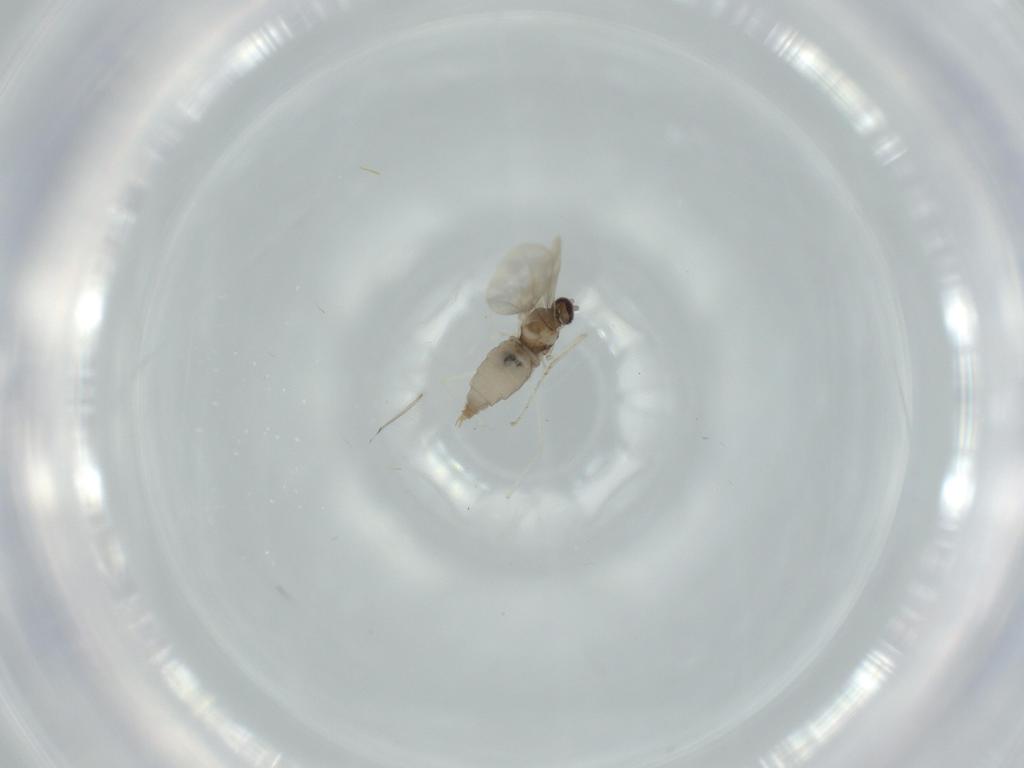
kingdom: Animalia
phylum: Arthropoda
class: Insecta
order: Diptera
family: Cecidomyiidae
